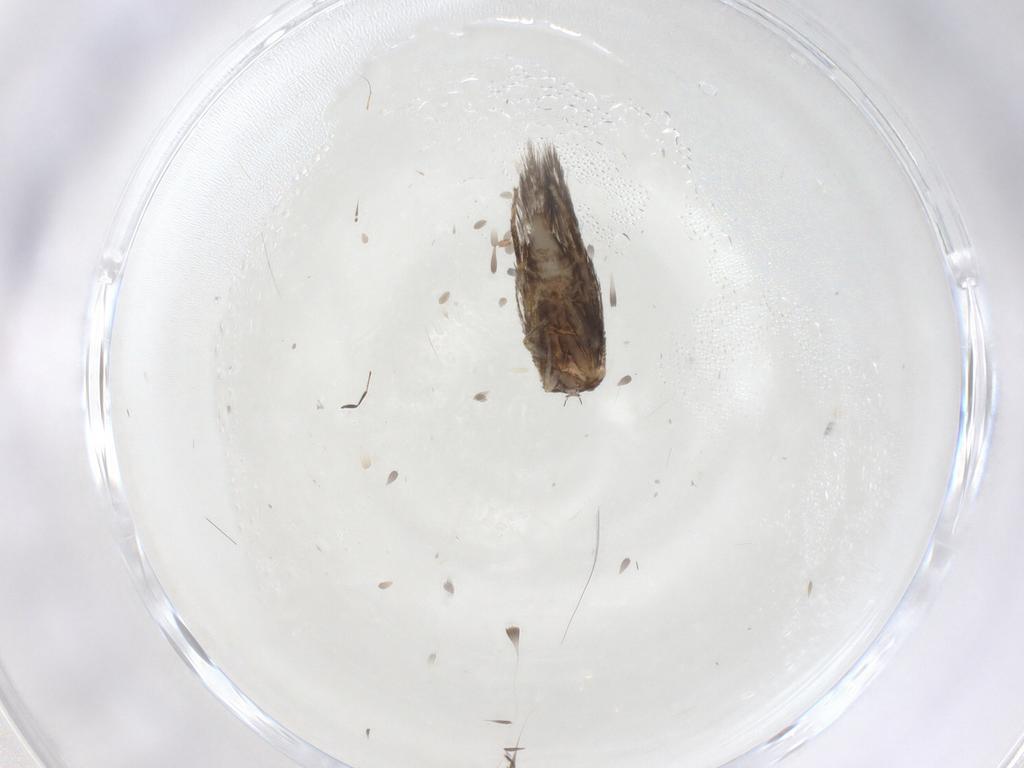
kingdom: Animalia
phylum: Arthropoda
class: Insecta
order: Lepidoptera
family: Nepticulidae
